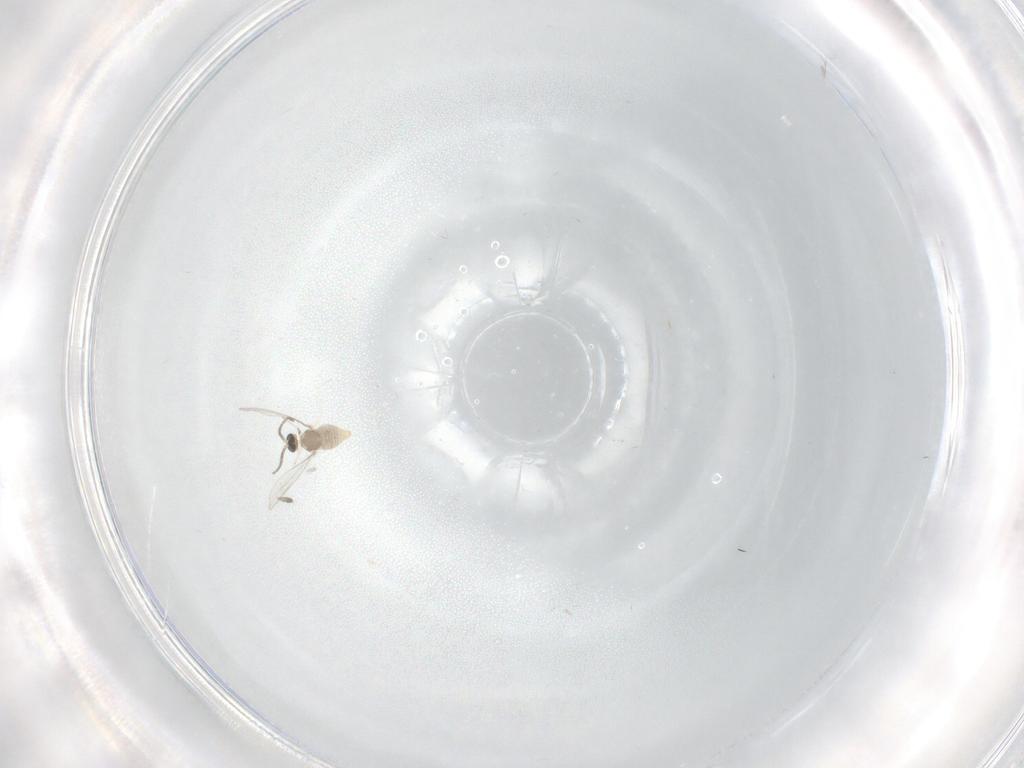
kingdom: Animalia
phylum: Arthropoda
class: Insecta
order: Diptera
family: Cecidomyiidae
